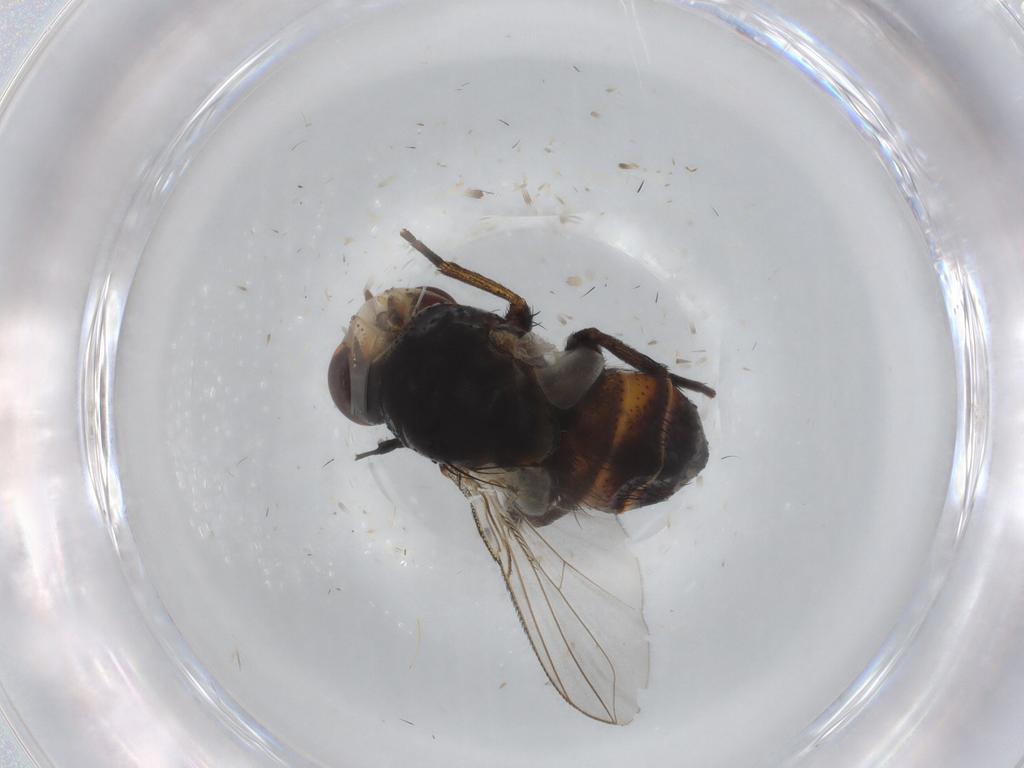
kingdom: Animalia
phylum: Arthropoda
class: Insecta
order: Diptera
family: Ceratopogonidae
